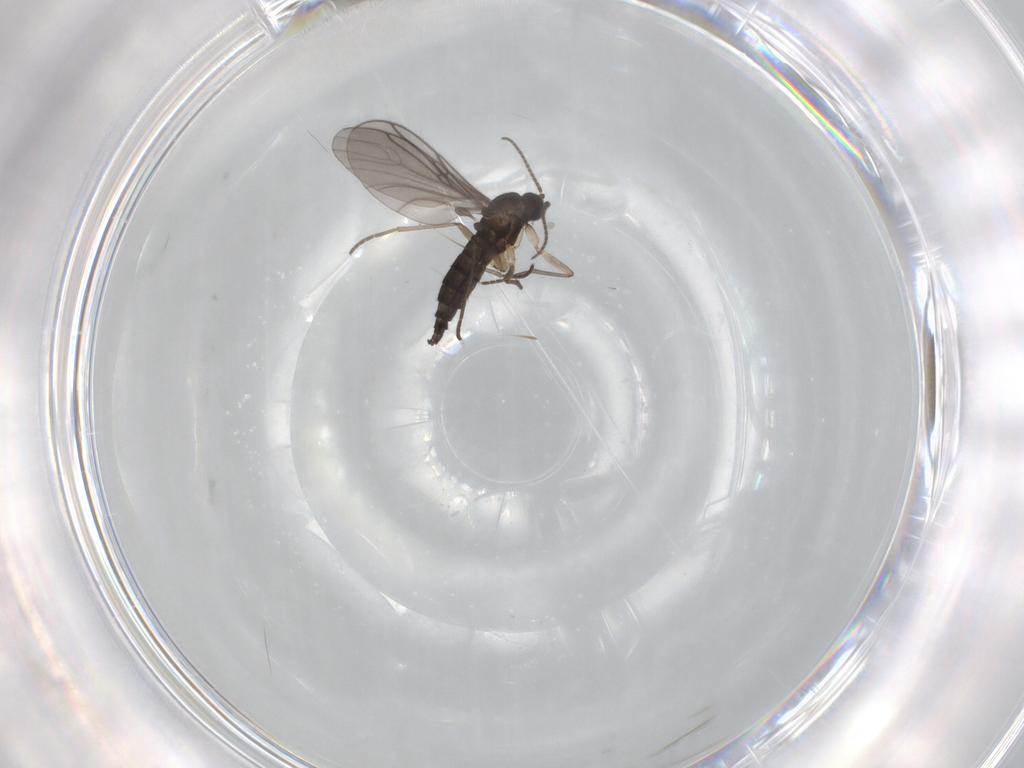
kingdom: Animalia
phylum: Arthropoda
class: Insecta
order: Diptera
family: Sciaridae
